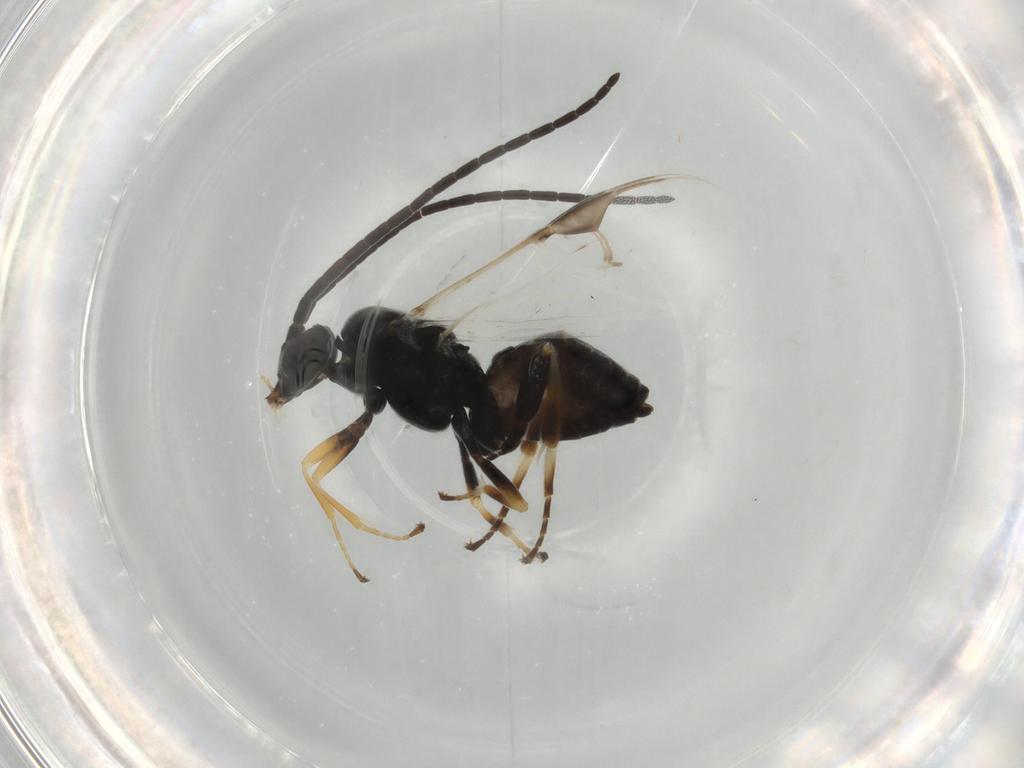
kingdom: Animalia
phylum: Arthropoda
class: Insecta
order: Hymenoptera
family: Braconidae
